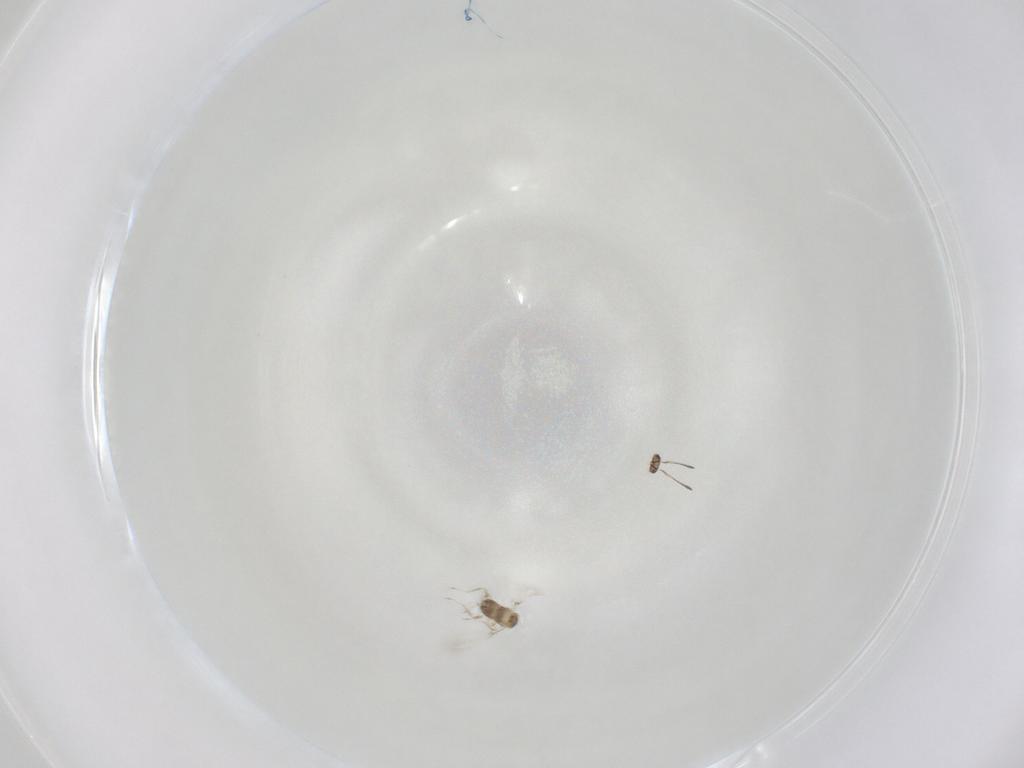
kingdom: Animalia
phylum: Arthropoda
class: Insecta
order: Hymenoptera
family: Mymaridae
